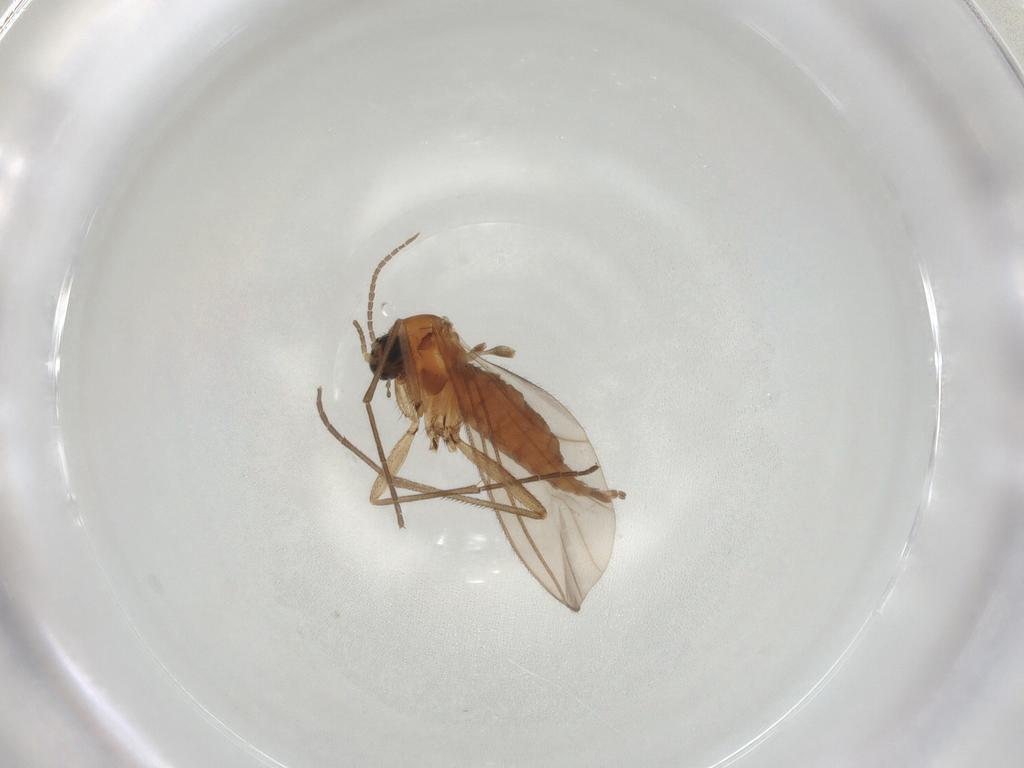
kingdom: Animalia
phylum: Arthropoda
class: Insecta
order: Diptera
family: Sciaridae
